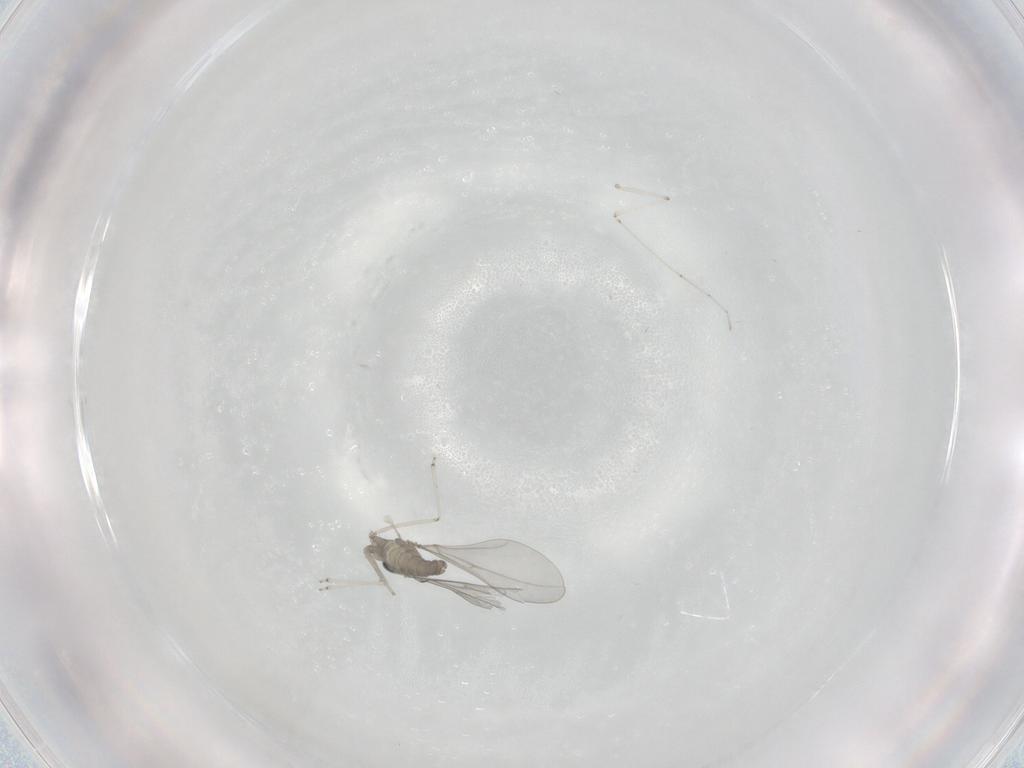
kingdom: Animalia
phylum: Arthropoda
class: Insecta
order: Diptera
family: Cecidomyiidae
